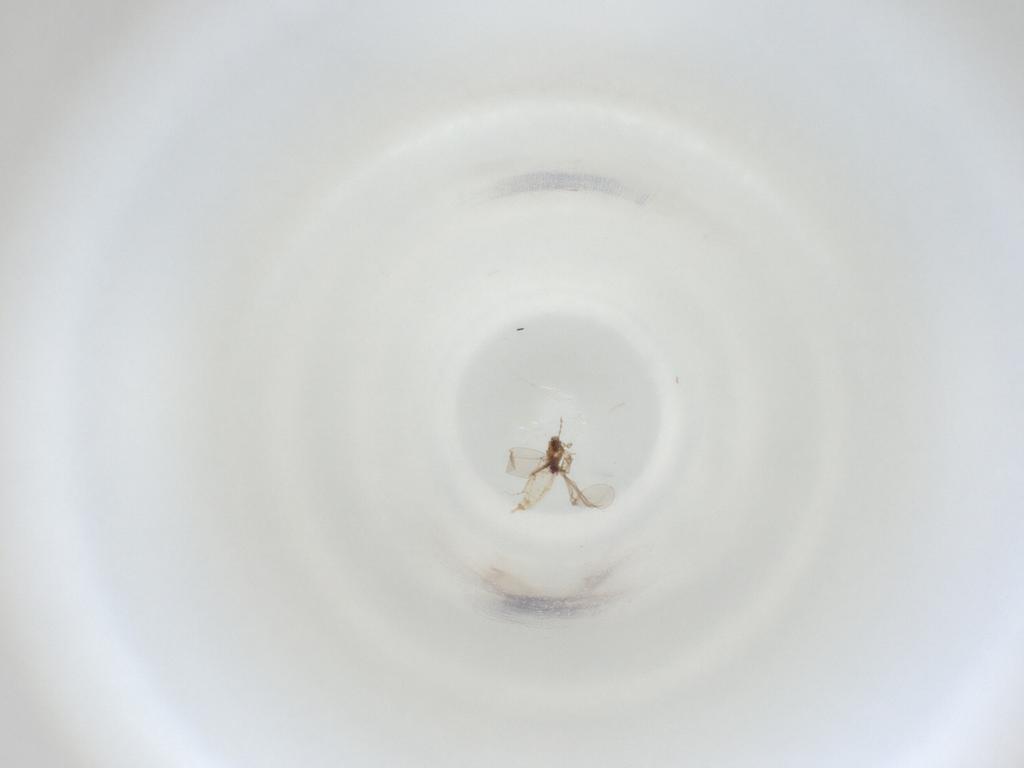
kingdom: Animalia
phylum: Arthropoda
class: Insecta
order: Diptera
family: Cecidomyiidae
